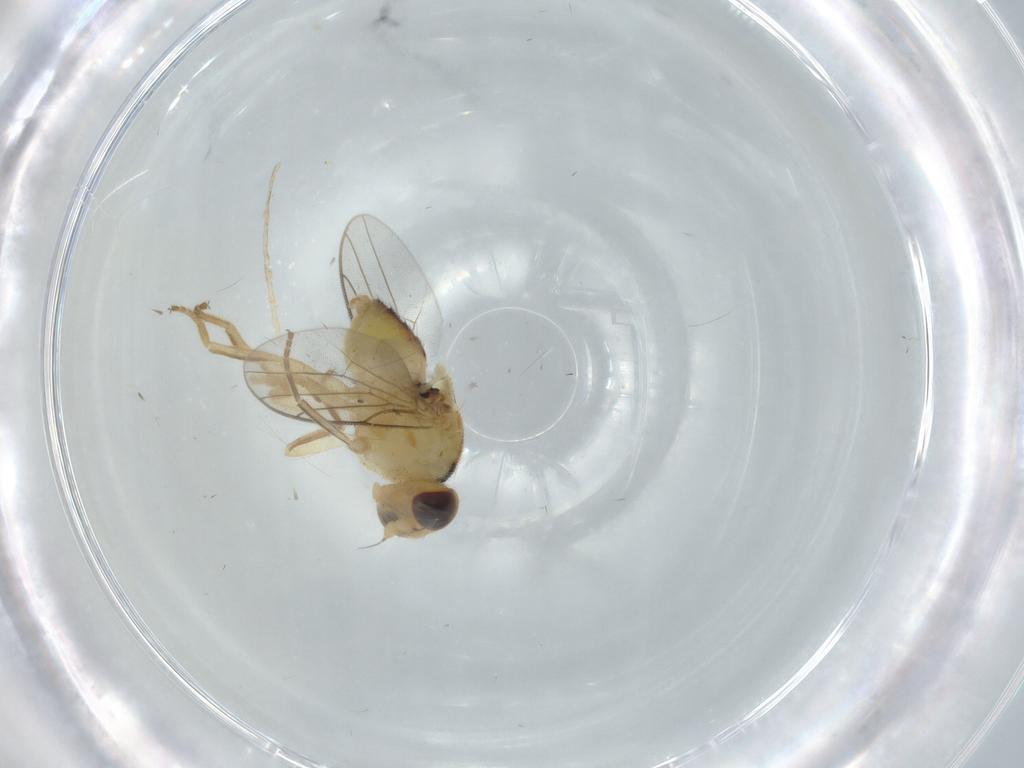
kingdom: Animalia
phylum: Arthropoda
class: Insecta
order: Diptera
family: Chloropidae
